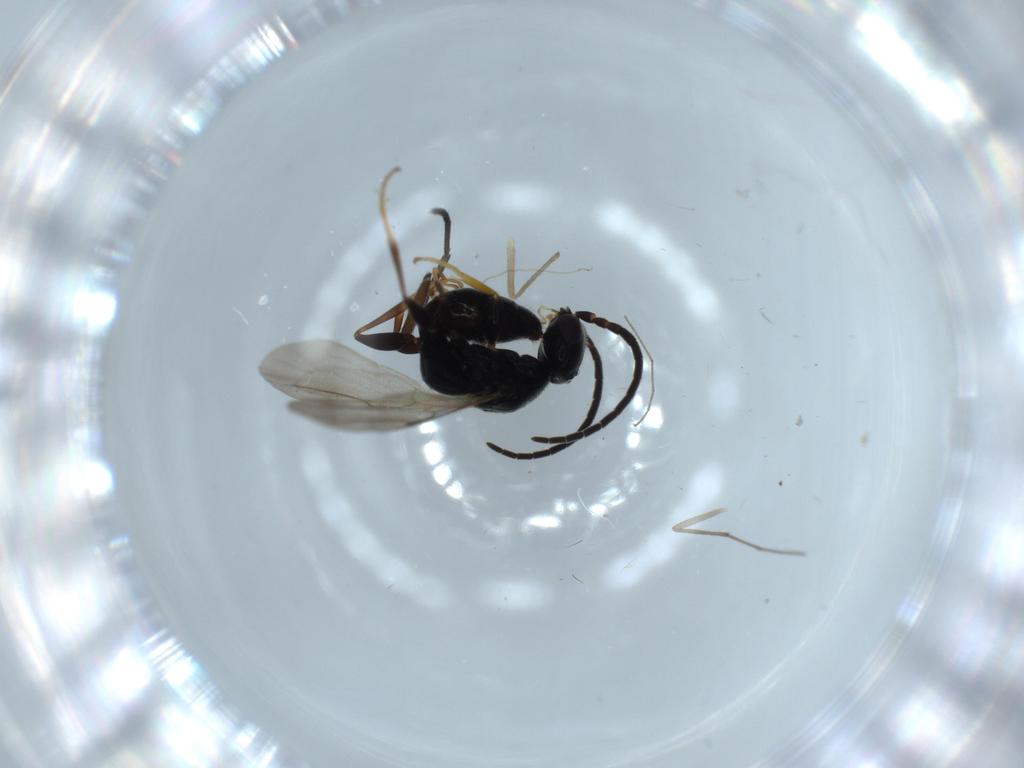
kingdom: Animalia
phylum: Arthropoda
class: Insecta
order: Hymenoptera
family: Bethylidae
